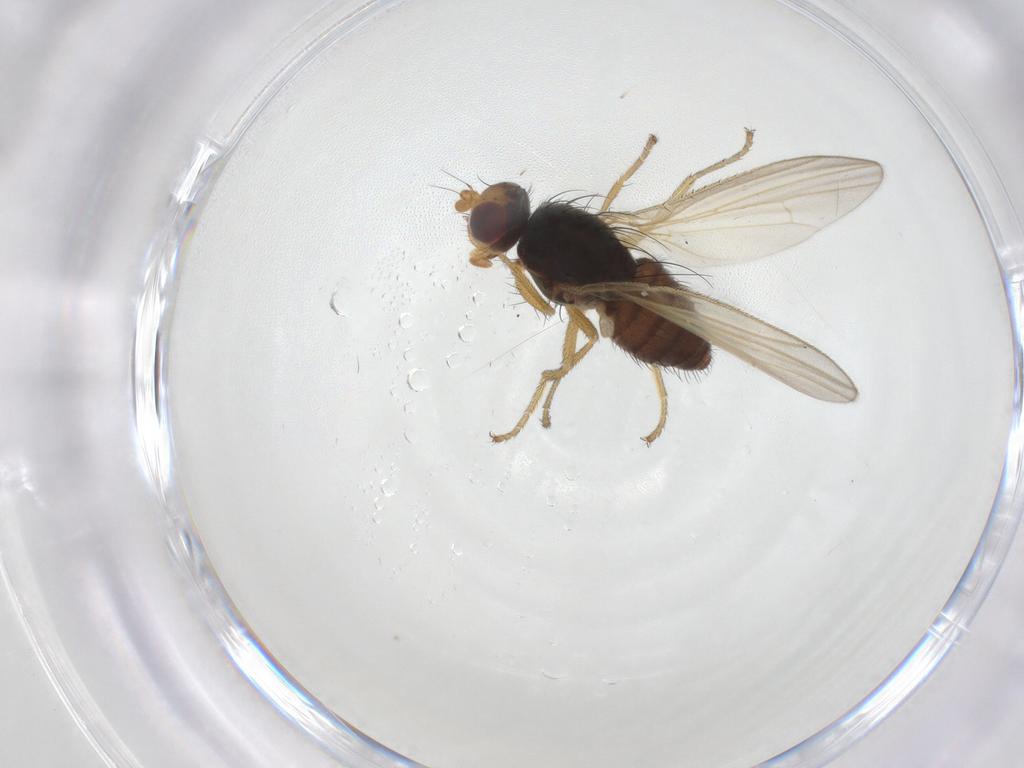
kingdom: Animalia
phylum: Arthropoda
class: Insecta
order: Diptera
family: Heleomyzidae
